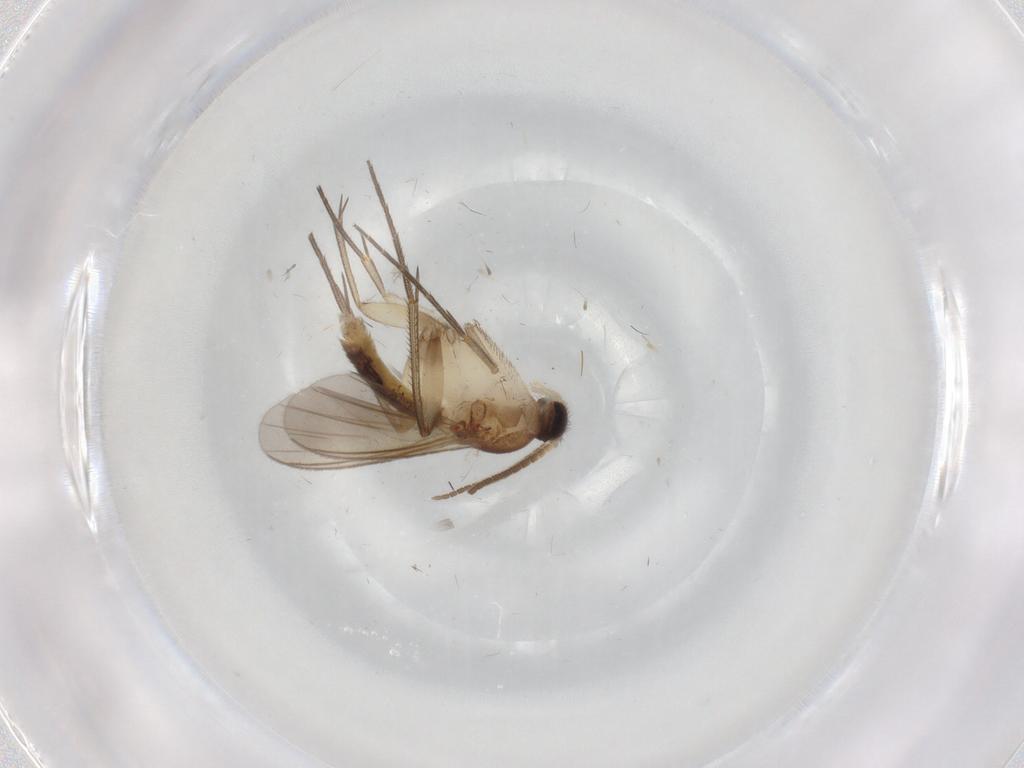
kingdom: Animalia
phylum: Arthropoda
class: Insecta
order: Diptera
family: Mycetophilidae
